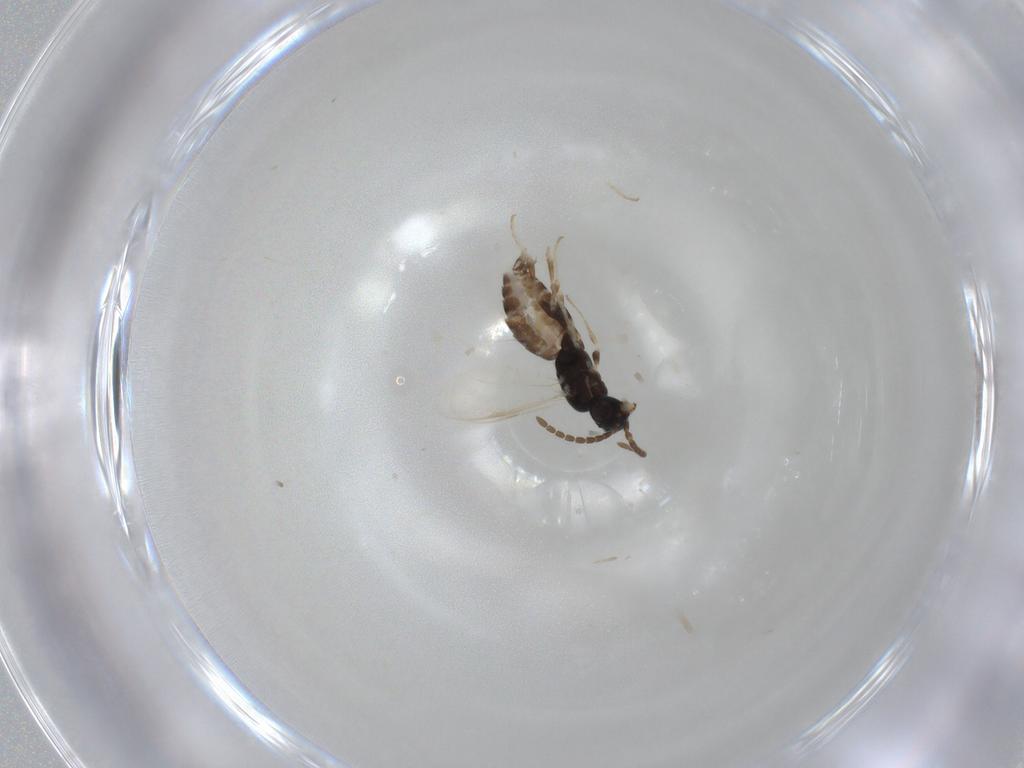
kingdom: Animalia
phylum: Arthropoda
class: Insecta
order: Hymenoptera
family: Dryinidae
